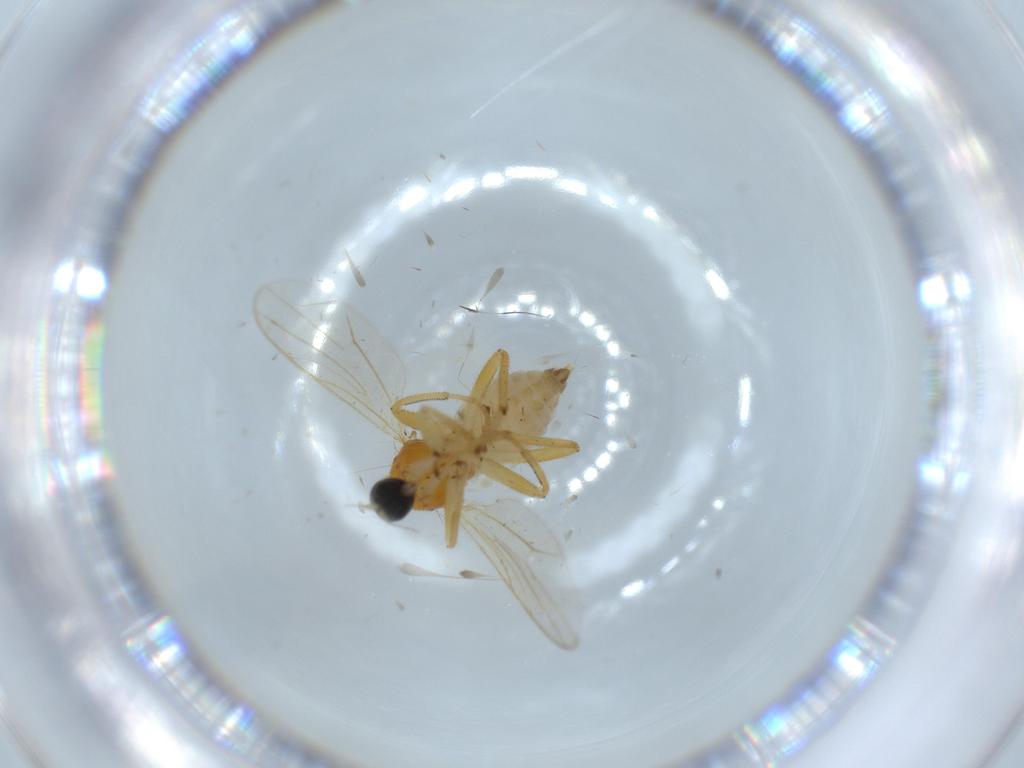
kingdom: Animalia
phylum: Arthropoda
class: Insecta
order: Diptera
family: Hybotidae
